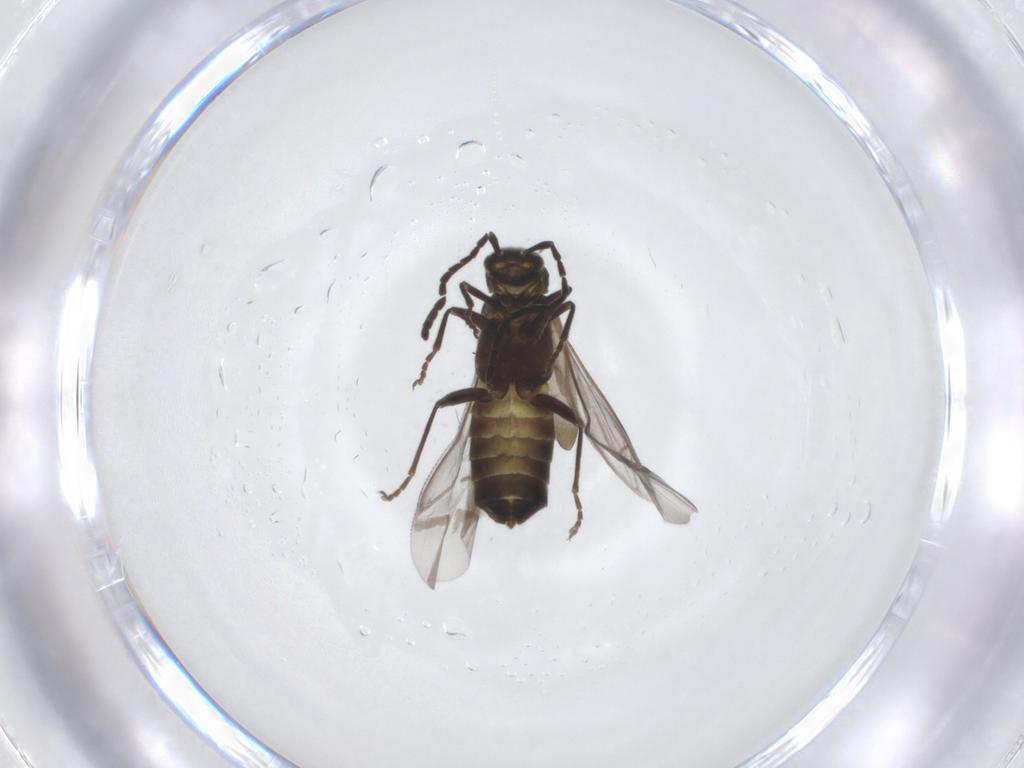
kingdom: Animalia
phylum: Arthropoda
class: Insecta
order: Coleoptera
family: Cantharidae
